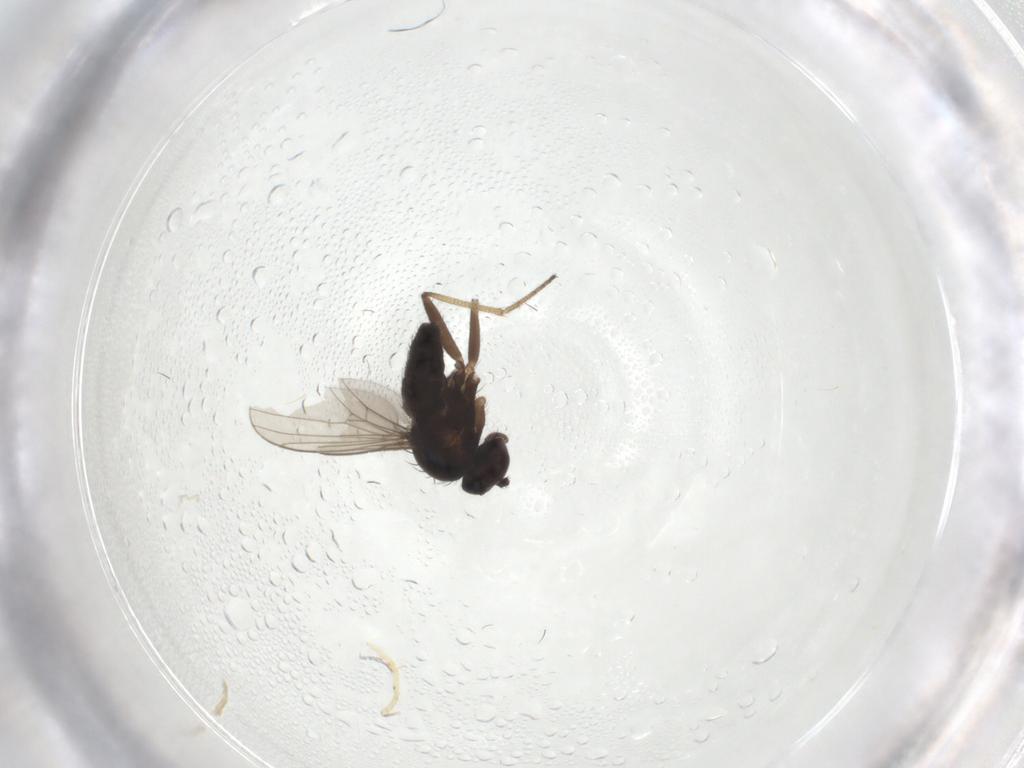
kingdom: Animalia
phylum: Arthropoda
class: Insecta
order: Diptera
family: Dolichopodidae
